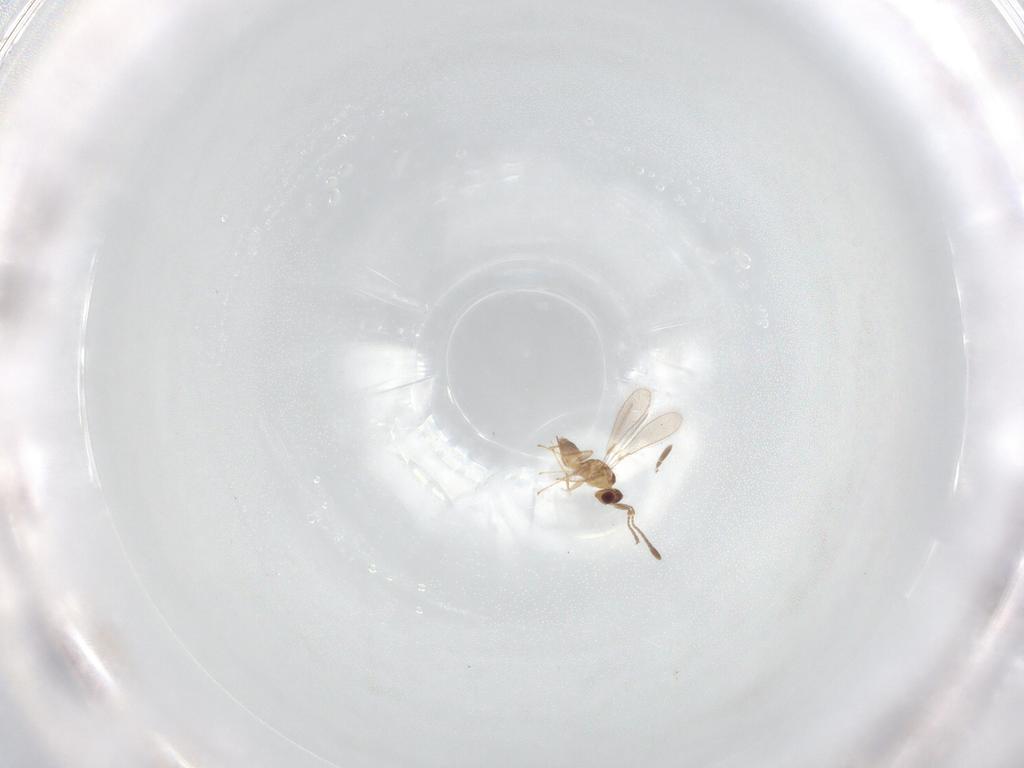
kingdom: Animalia
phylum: Arthropoda
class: Insecta
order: Hymenoptera
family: Mymaridae
